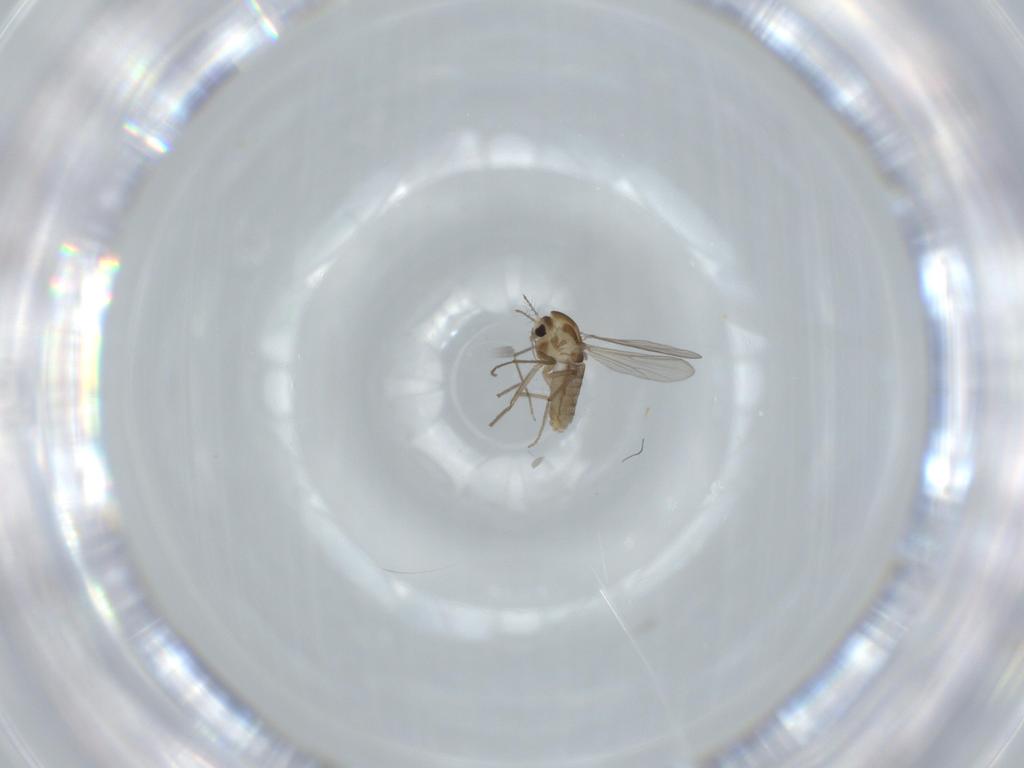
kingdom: Animalia
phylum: Arthropoda
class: Insecta
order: Diptera
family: Chironomidae
